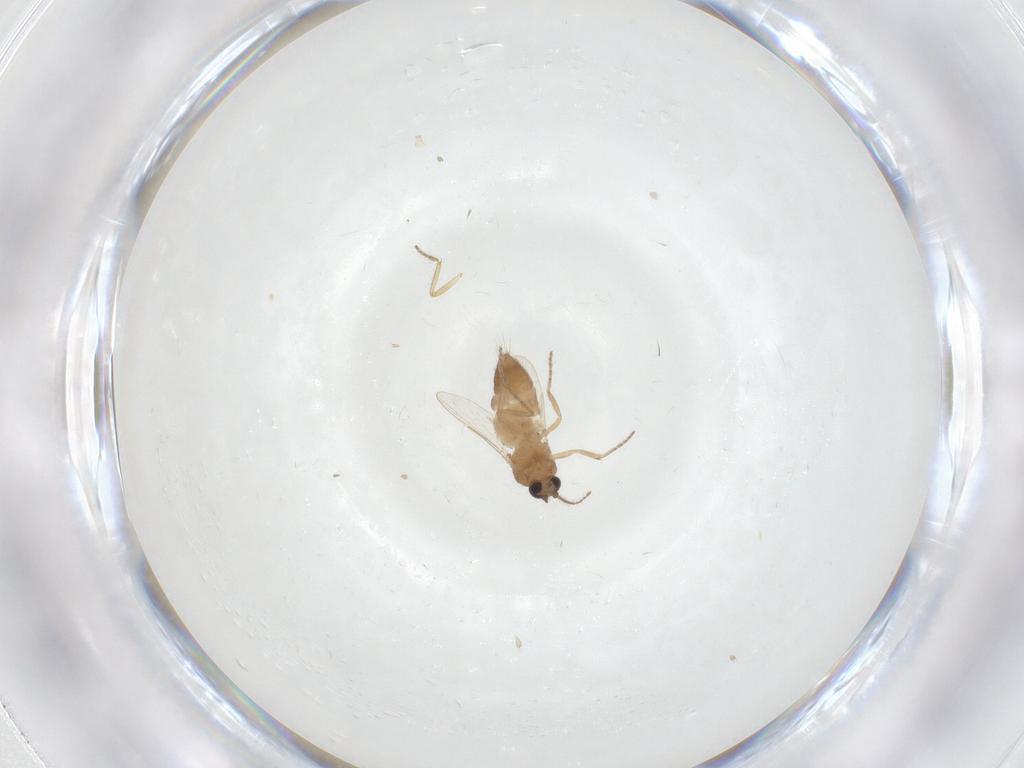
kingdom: Animalia
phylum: Arthropoda
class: Insecta
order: Diptera
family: Ceratopogonidae
